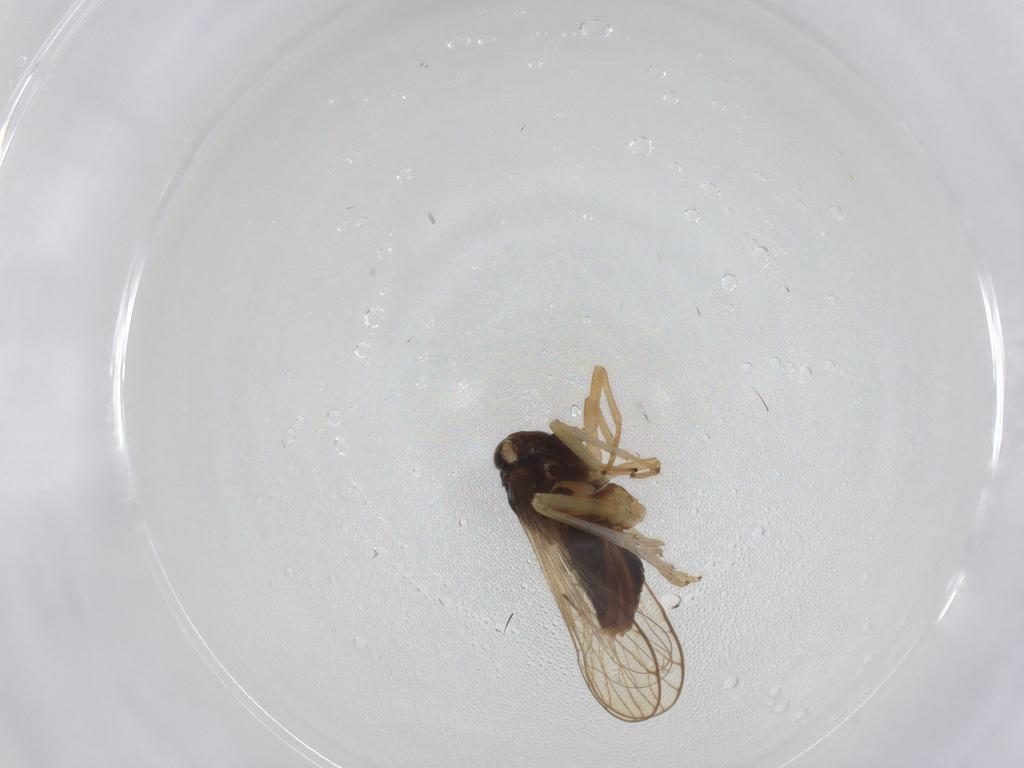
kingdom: Animalia
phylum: Arthropoda
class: Insecta
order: Hemiptera
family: Delphacidae
